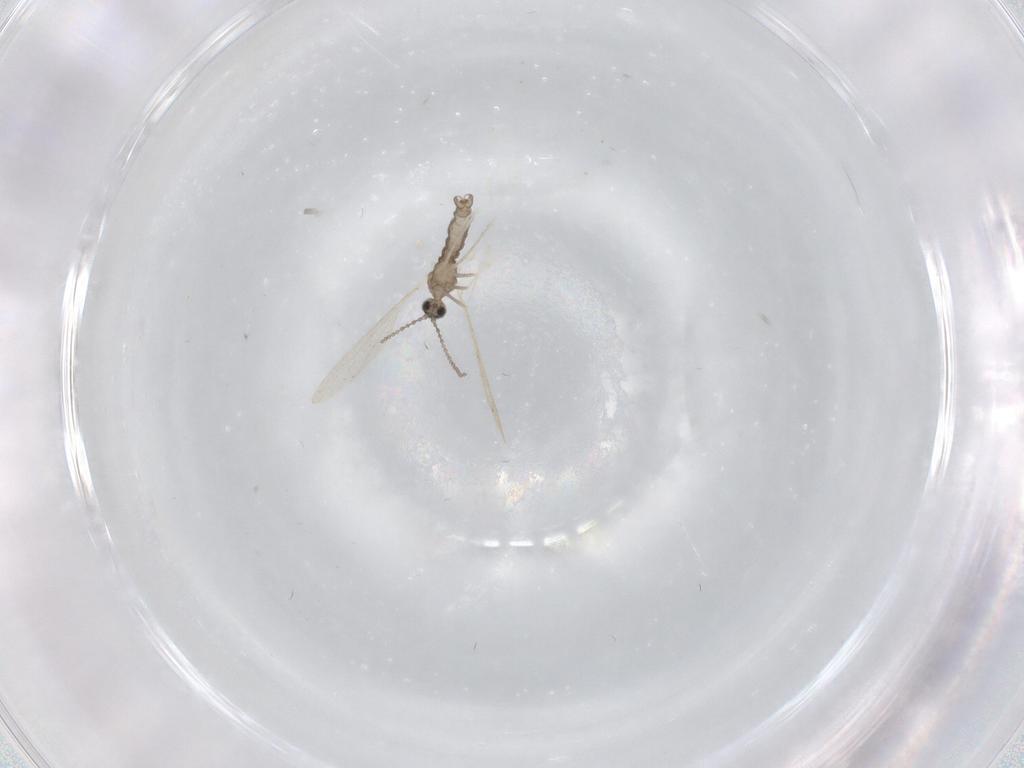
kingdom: Animalia
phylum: Arthropoda
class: Insecta
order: Diptera
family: Cecidomyiidae
